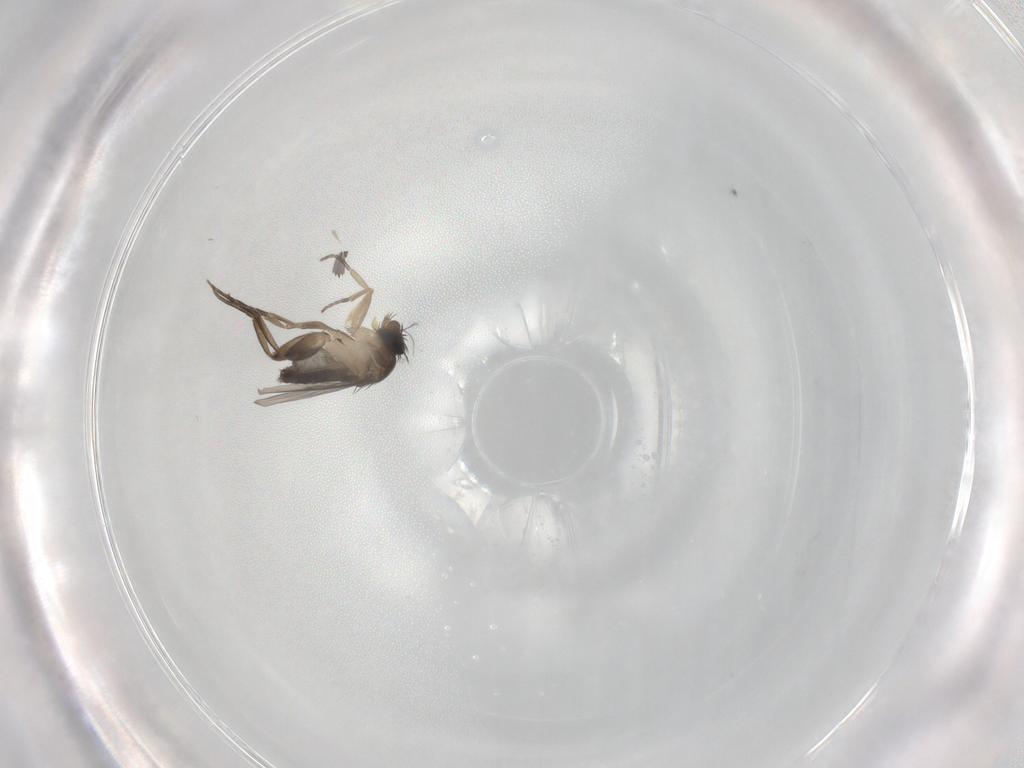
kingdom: Animalia
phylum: Arthropoda
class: Insecta
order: Diptera
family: Phoridae
